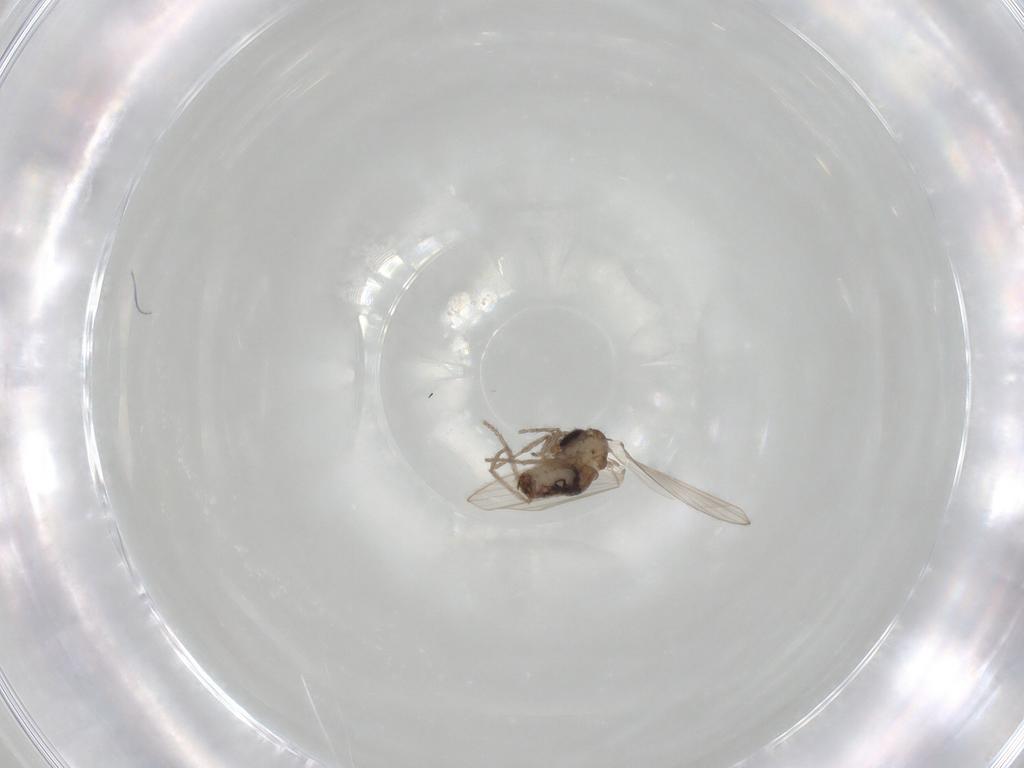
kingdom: Animalia
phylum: Arthropoda
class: Insecta
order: Diptera
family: Psychodidae
